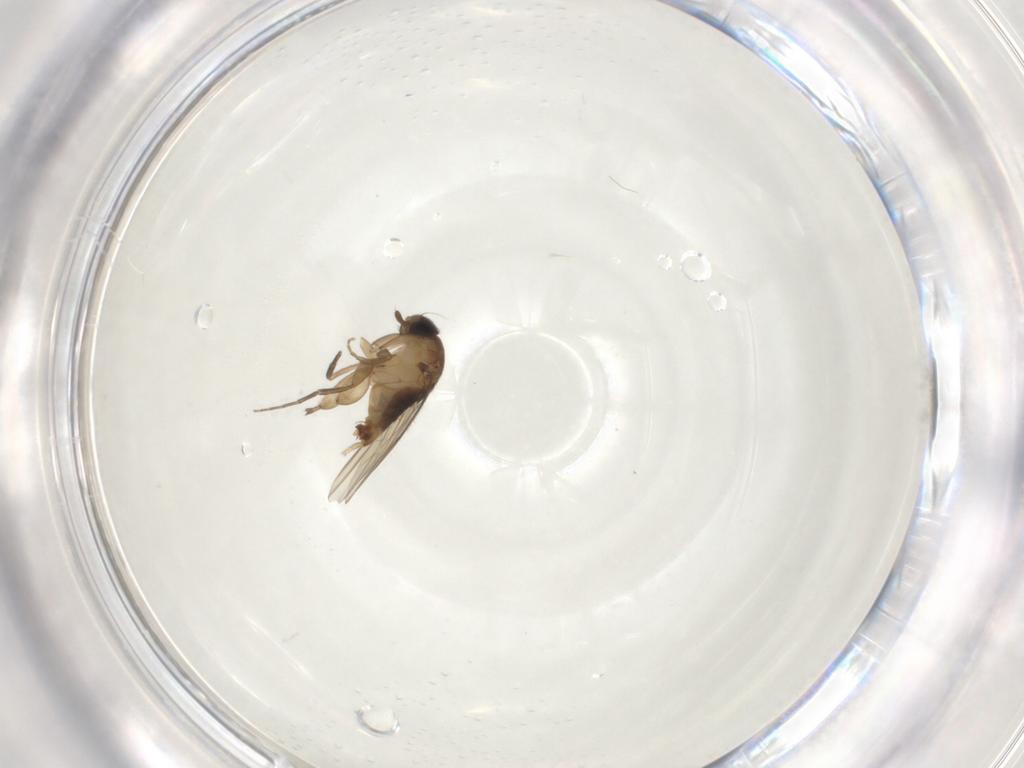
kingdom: Animalia
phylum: Arthropoda
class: Insecta
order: Diptera
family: Phoridae
